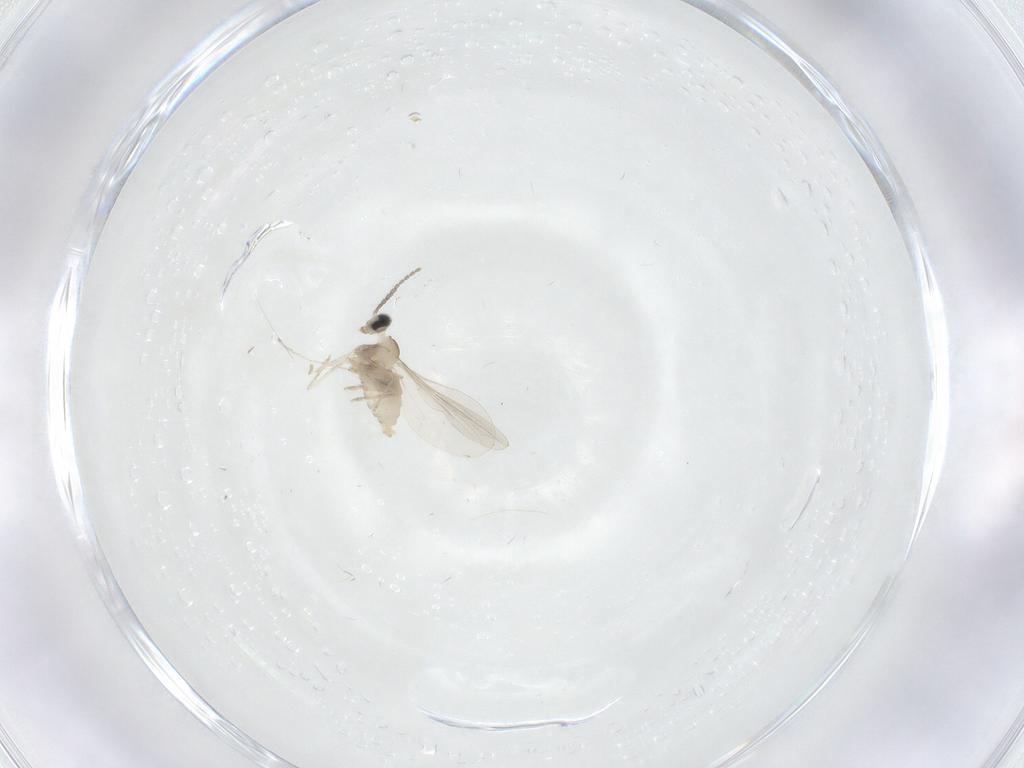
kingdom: Animalia
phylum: Arthropoda
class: Insecta
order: Diptera
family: Cecidomyiidae
